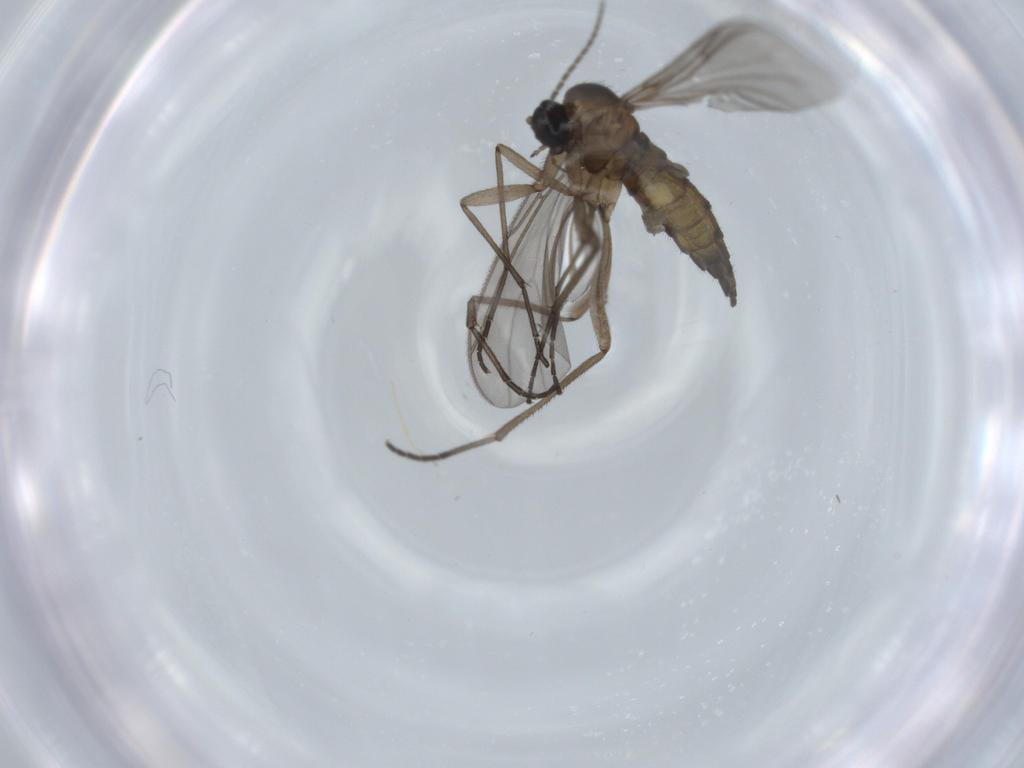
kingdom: Animalia
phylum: Arthropoda
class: Insecta
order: Diptera
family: Sciaridae
